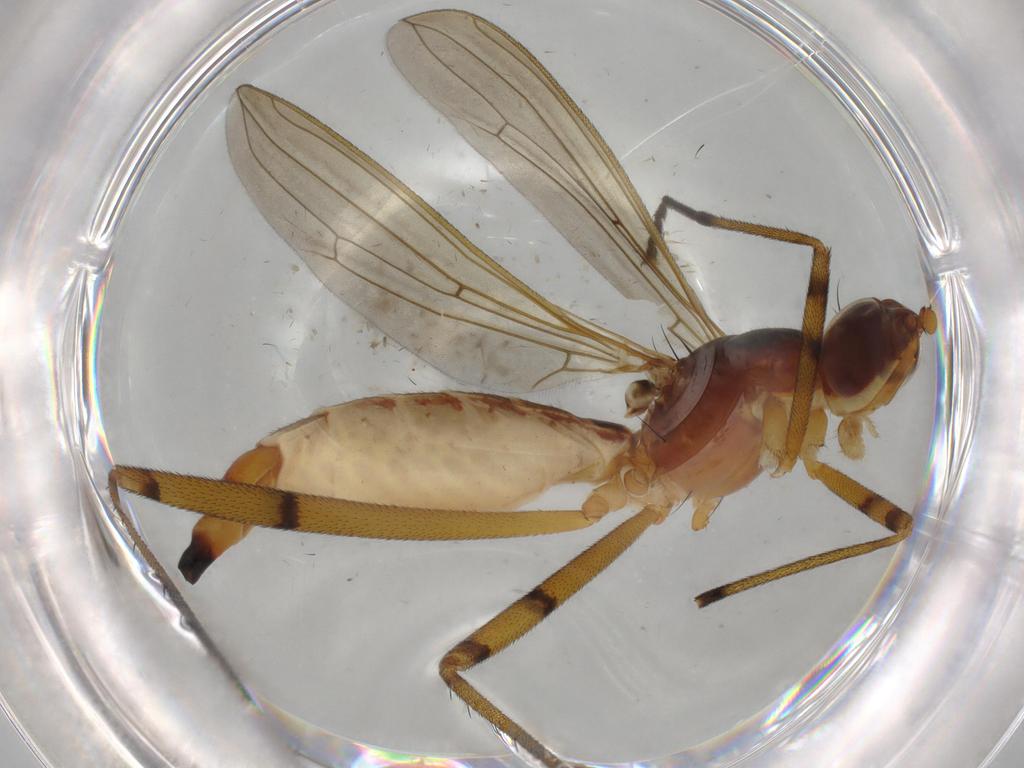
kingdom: Animalia
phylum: Arthropoda
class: Insecta
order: Diptera
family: Micropezidae
